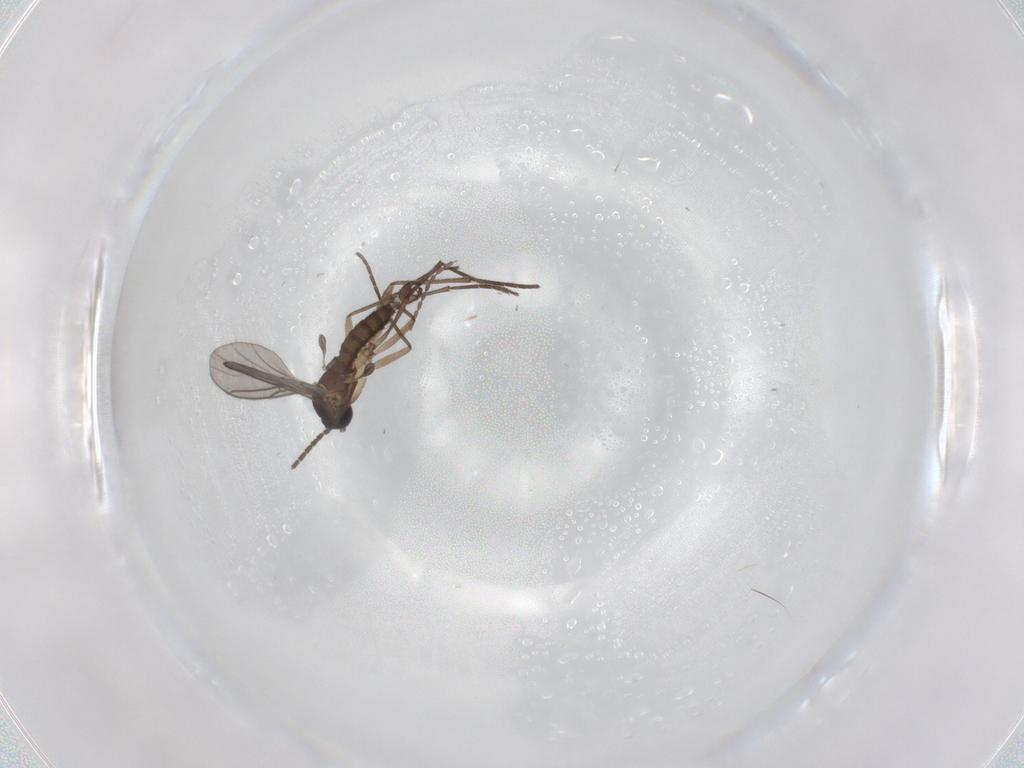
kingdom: Animalia
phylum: Arthropoda
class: Insecta
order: Diptera
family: Sciaridae
